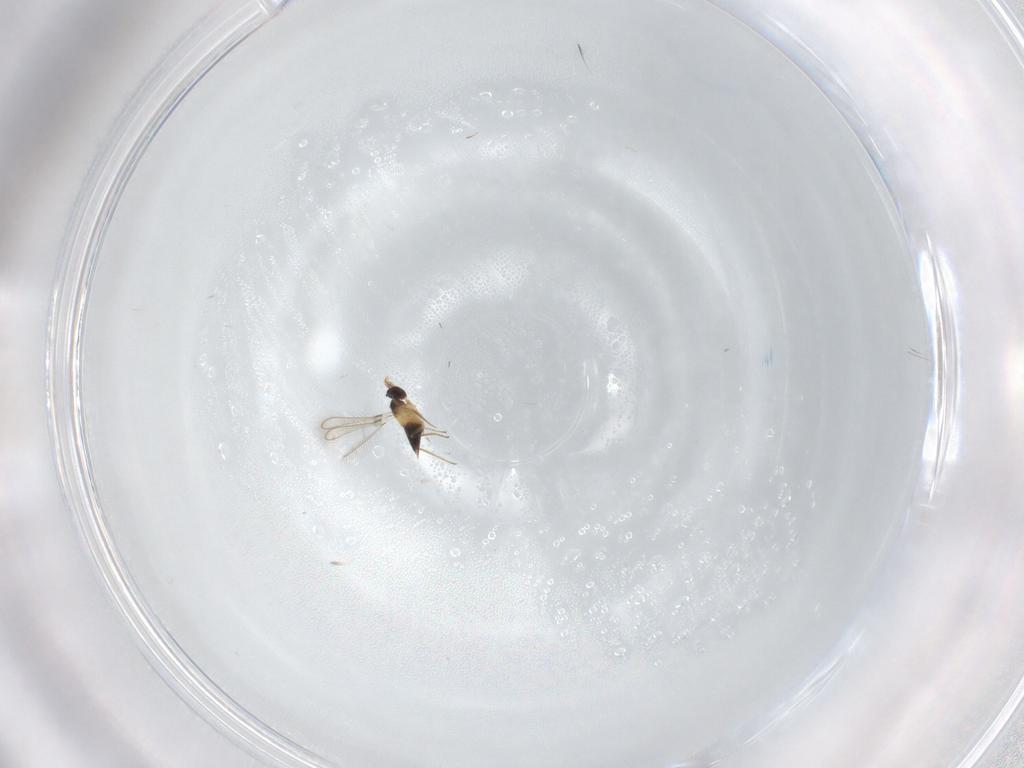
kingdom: Animalia
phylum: Arthropoda
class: Insecta
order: Hymenoptera
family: Mymaridae
